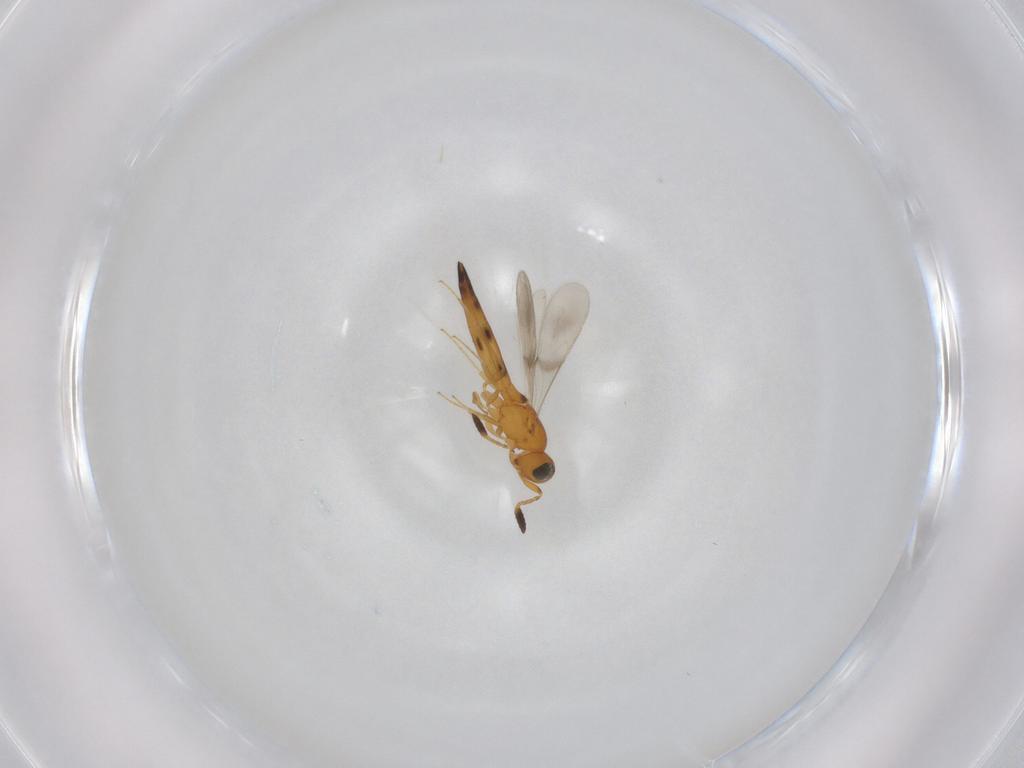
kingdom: Animalia
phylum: Arthropoda
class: Insecta
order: Hymenoptera
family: Scelionidae
